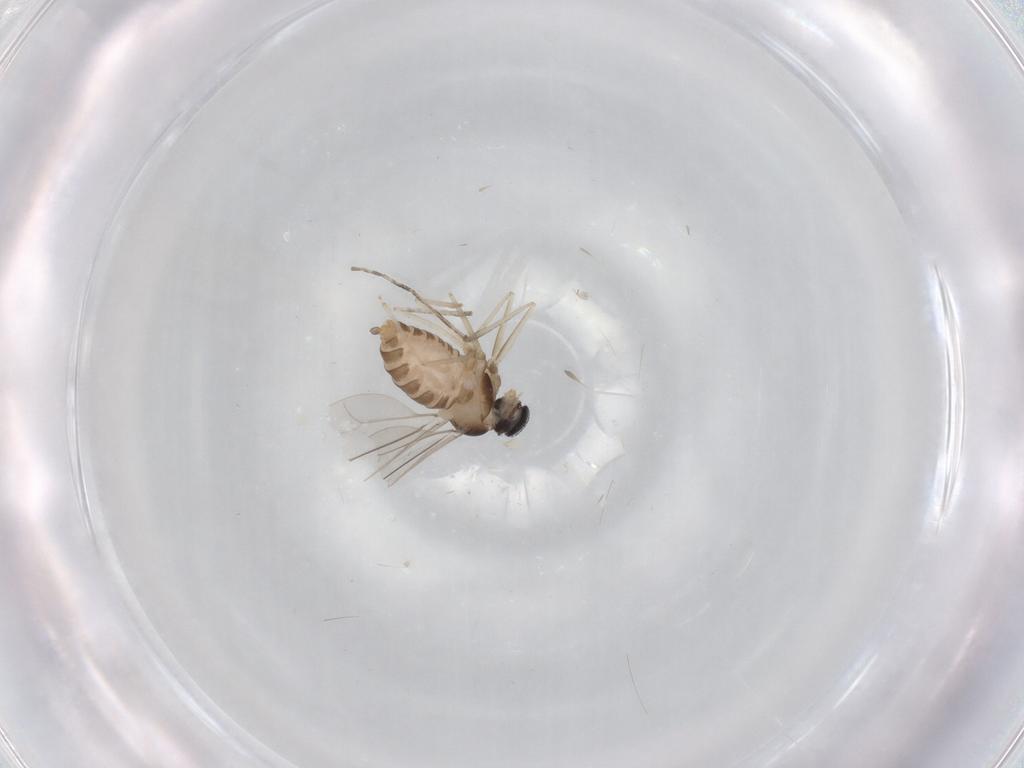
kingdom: Animalia
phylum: Arthropoda
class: Insecta
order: Diptera
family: Cecidomyiidae
